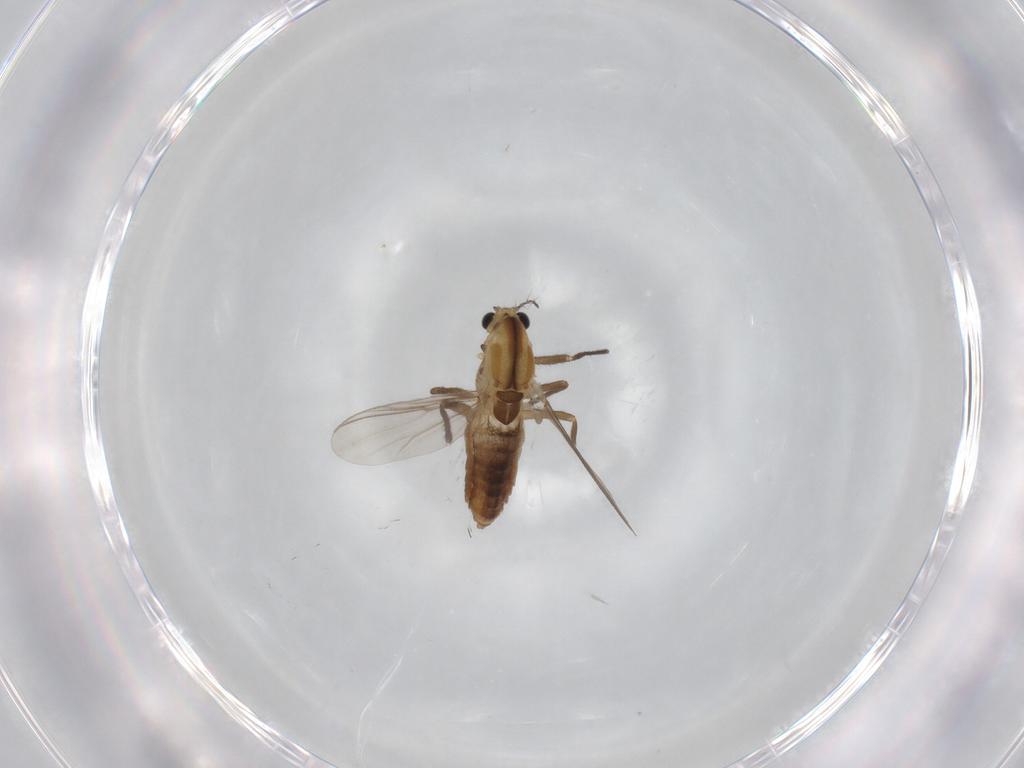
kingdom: Animalia
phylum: Arthropoda
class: Insecta
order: Diptera
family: Chironomidae
